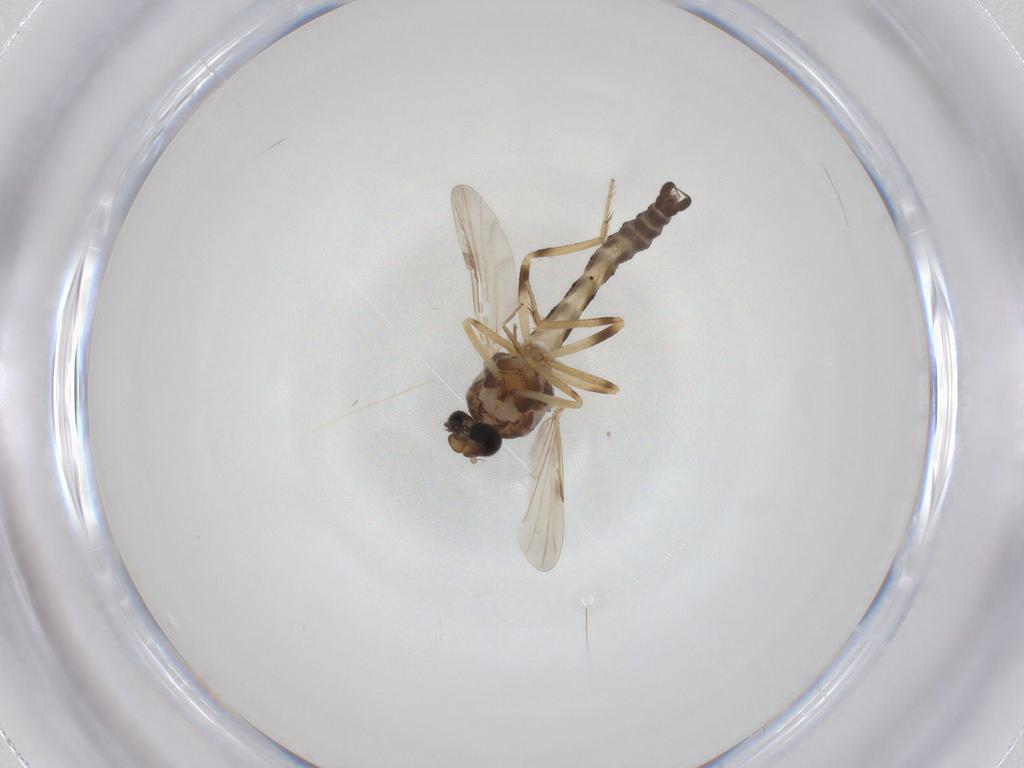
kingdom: Animalia
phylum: Arthropoda
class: Insecta
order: Diptera
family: Ceratopogonidae
